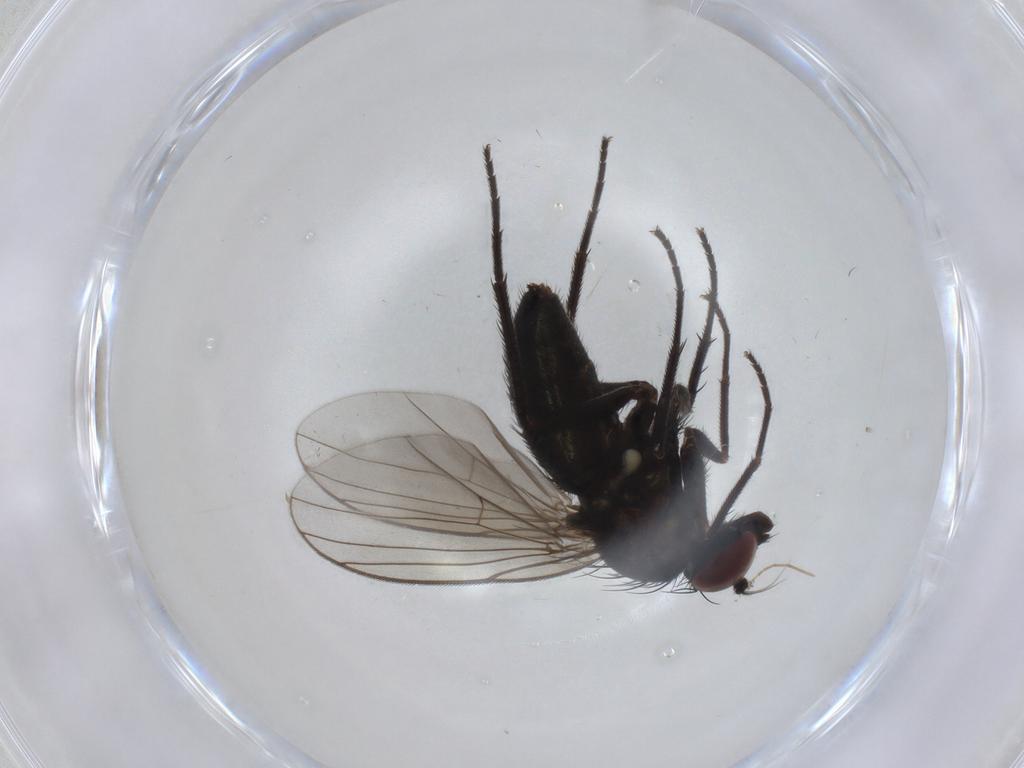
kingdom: Animalia
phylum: Arthropoda
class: Insecta
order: Diptera
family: Dolichopodidae
